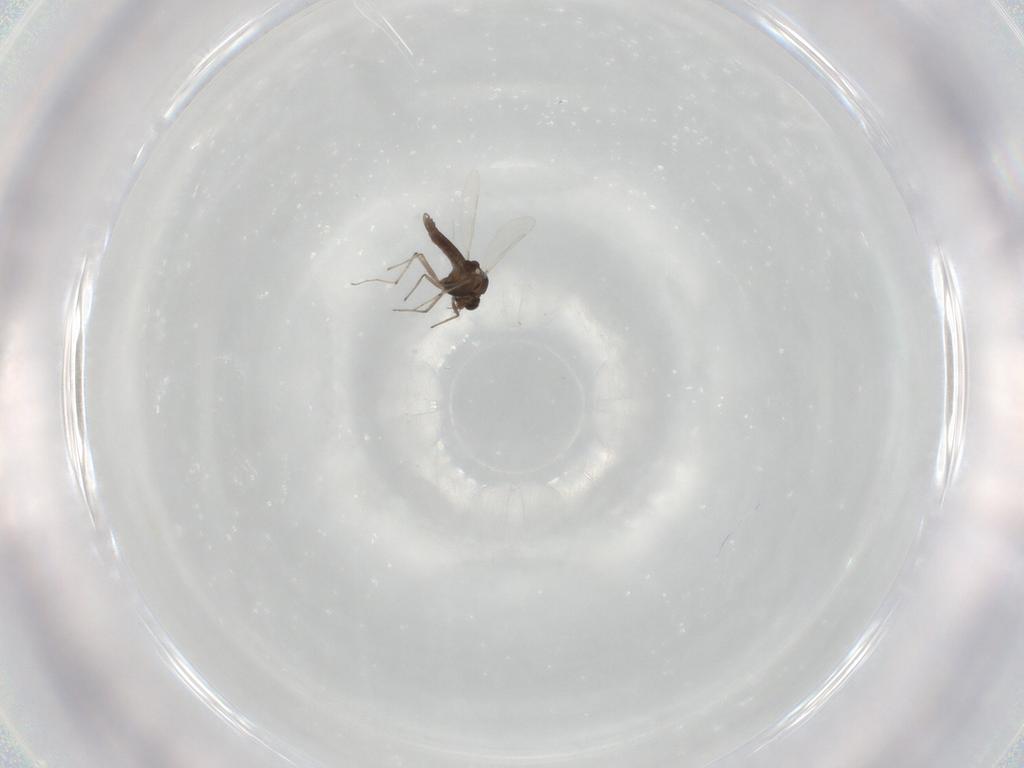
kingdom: Animalia
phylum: Arthropoda
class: Insecta
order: Diptera
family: Chironomidae
